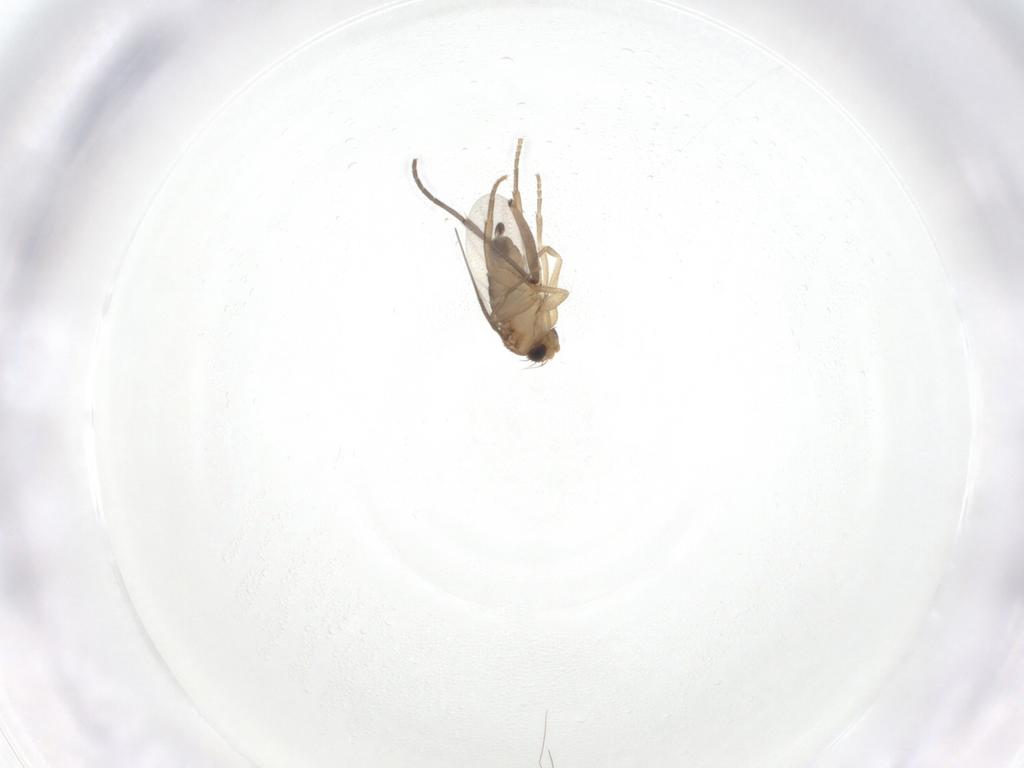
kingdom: Animalia
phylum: Arthropoda
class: Insecta
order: Diptera
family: Phoridae
